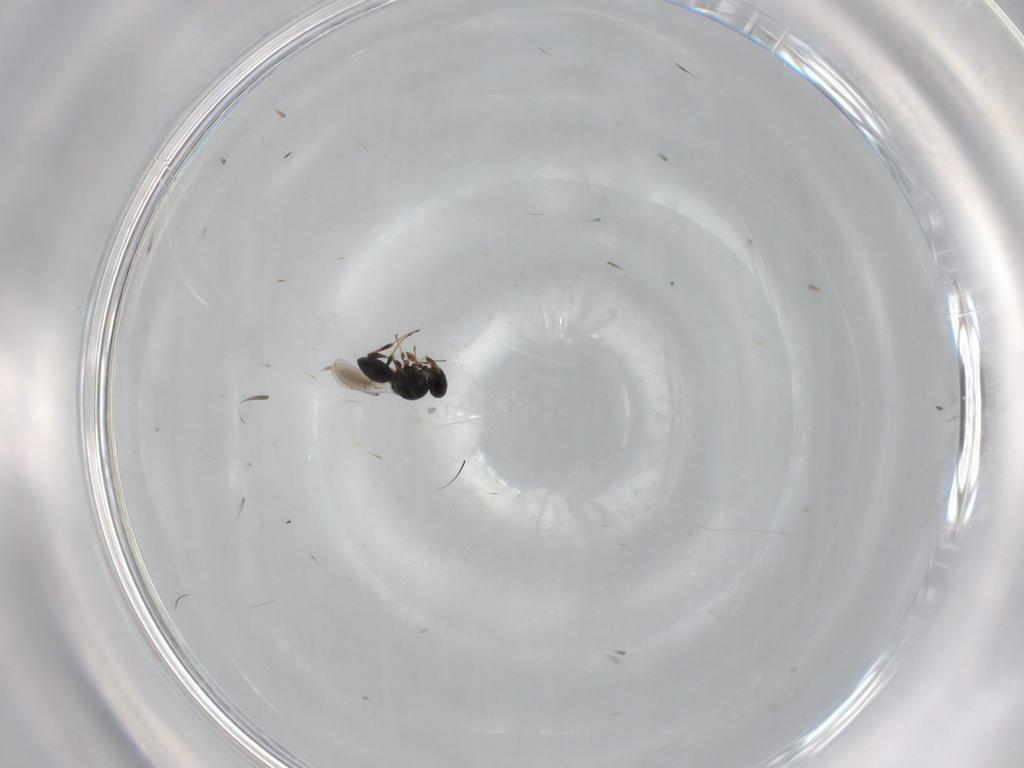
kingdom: Animalia
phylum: Arthropoda
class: Insecta
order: Hymenoptera
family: Platygastridae
